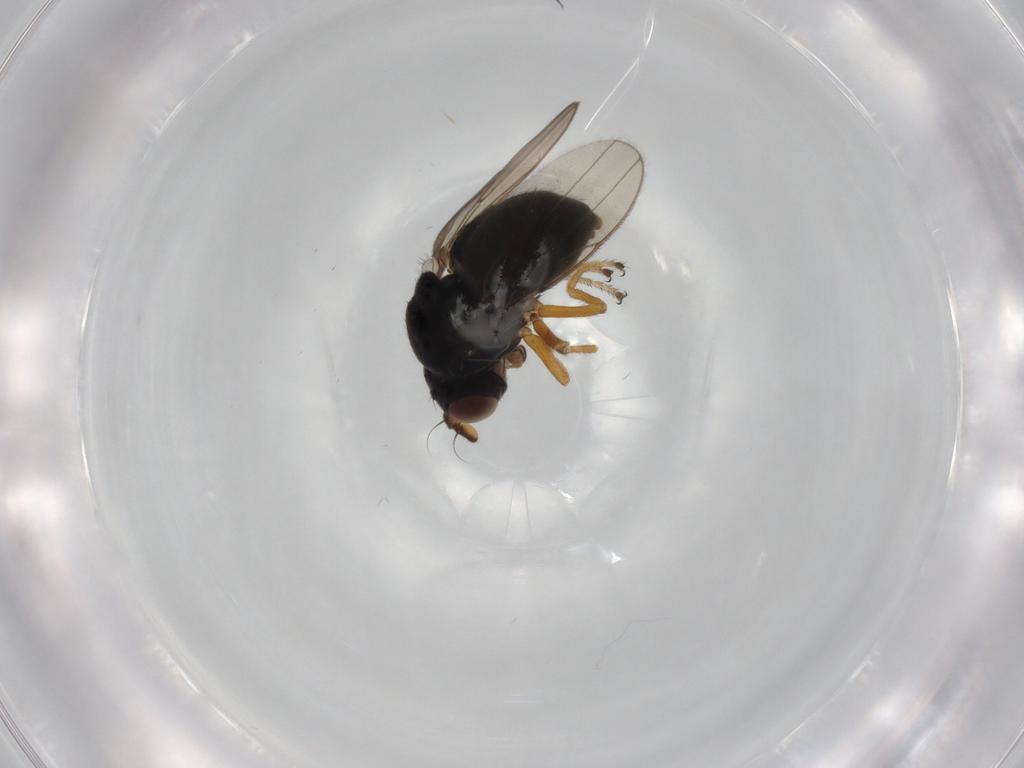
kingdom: Animalia
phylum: Arthropoda
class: Insecta
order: Diptera
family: Ephydridae
